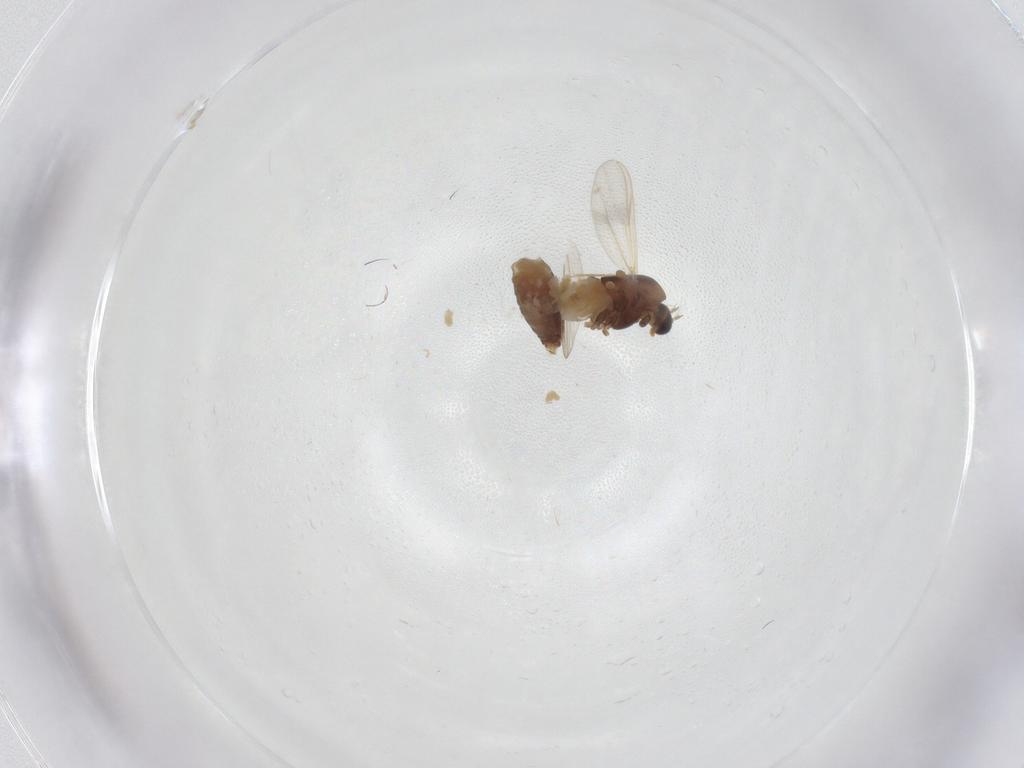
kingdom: Animalia
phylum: Arthropoda
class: Insecta
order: Diptera
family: Chironomidae
